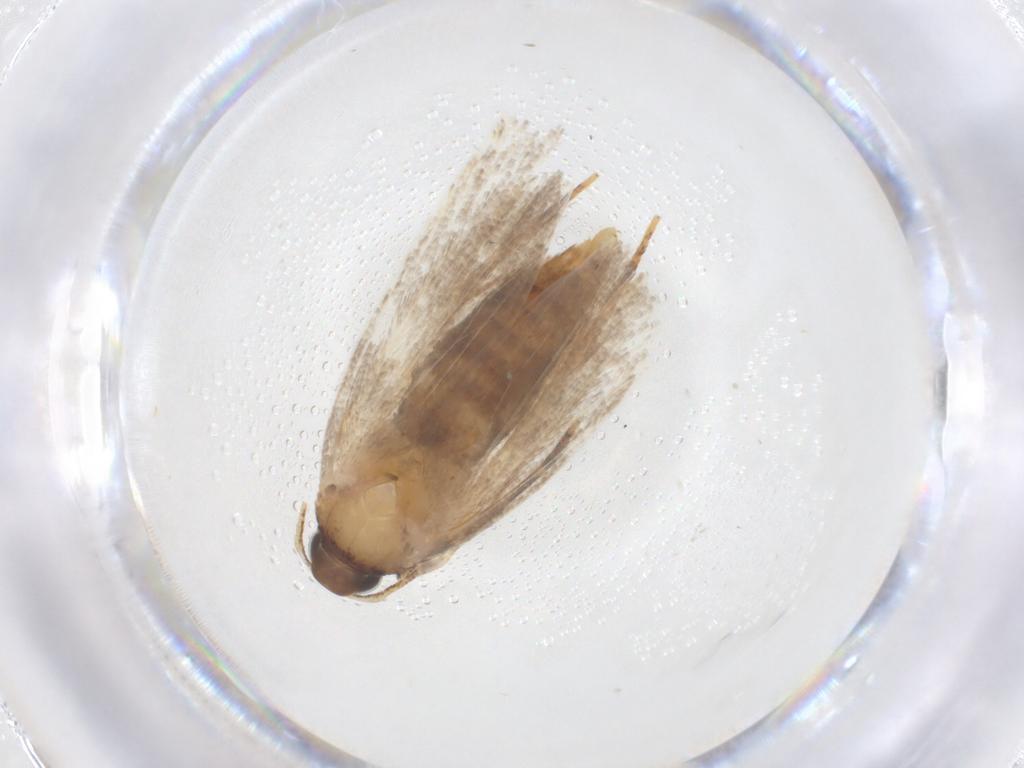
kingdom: Animalia
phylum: Arthropoda
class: Insecta
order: Lepidoptera
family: Oecophoridae
